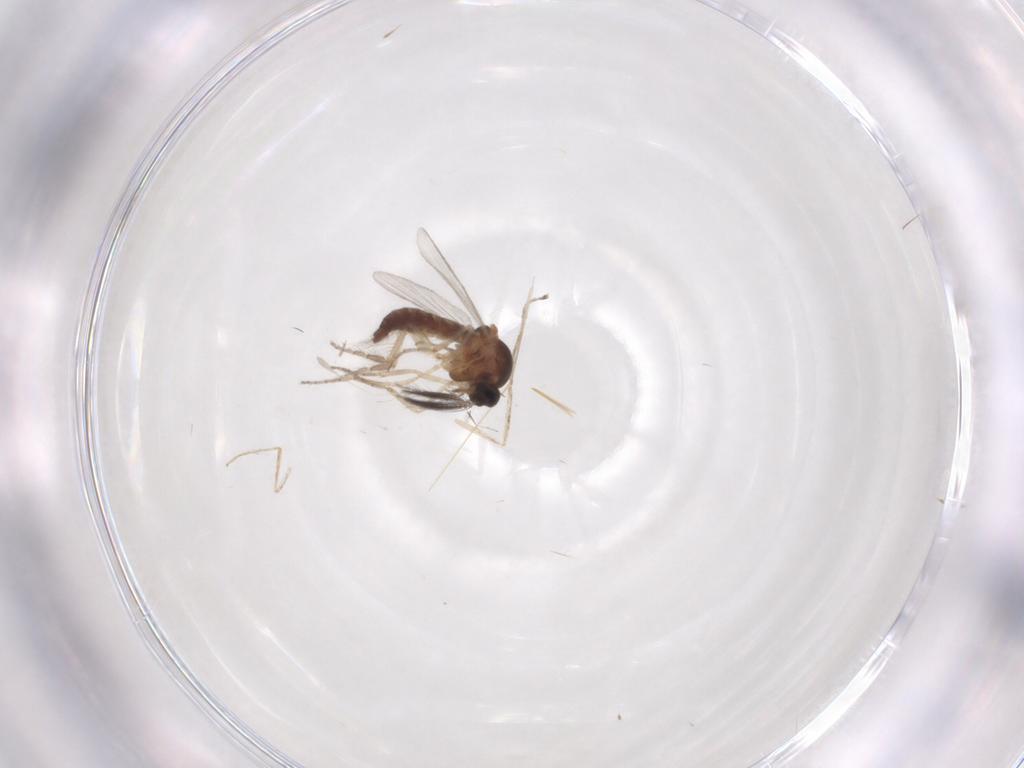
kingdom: Animalia
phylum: Arthropoda
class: Insecta
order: Diptera
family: Ceratopogonidae
